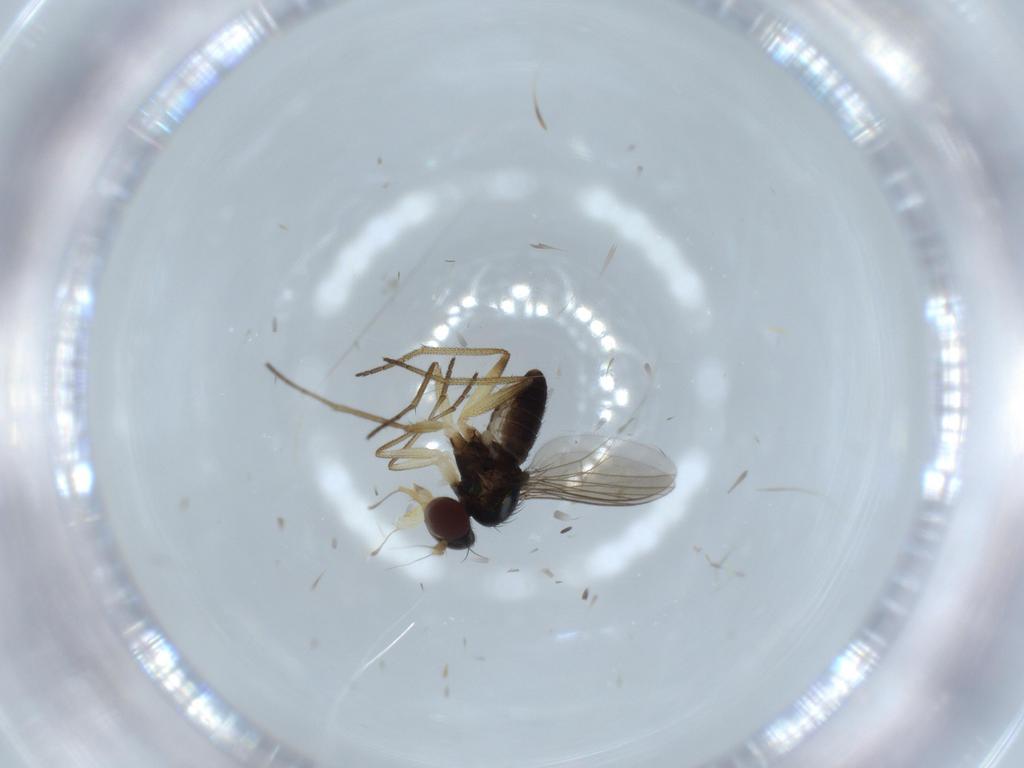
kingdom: Animalia
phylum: Arthropoda
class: Insecta
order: Diptera
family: Dolichopodidae
